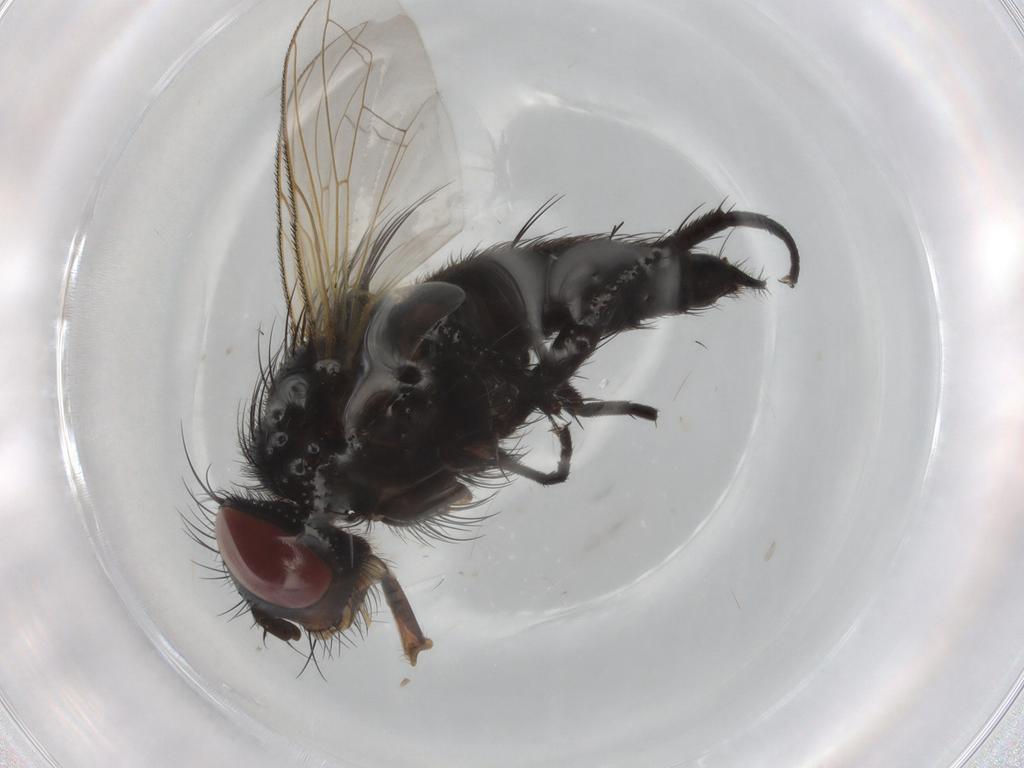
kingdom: Animalia
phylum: Arthropoda
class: Insecta
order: Diptera
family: Tachinidae
